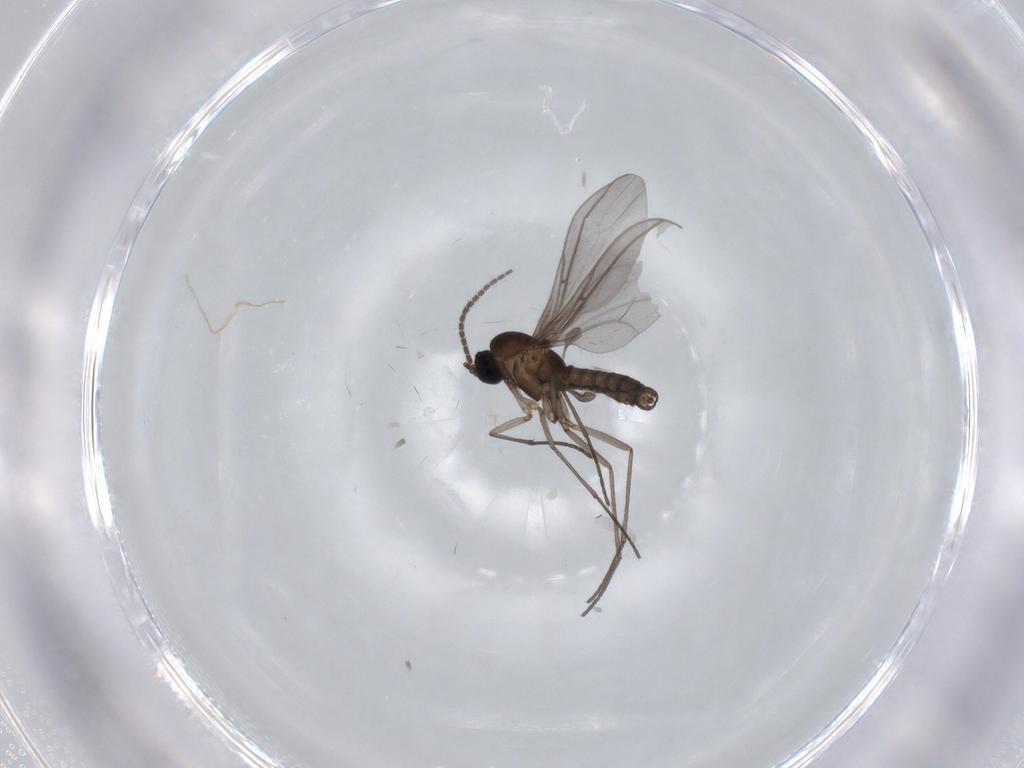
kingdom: Animalia
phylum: Arthropoda
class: Insecta
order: Diptera
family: Sciaridae
